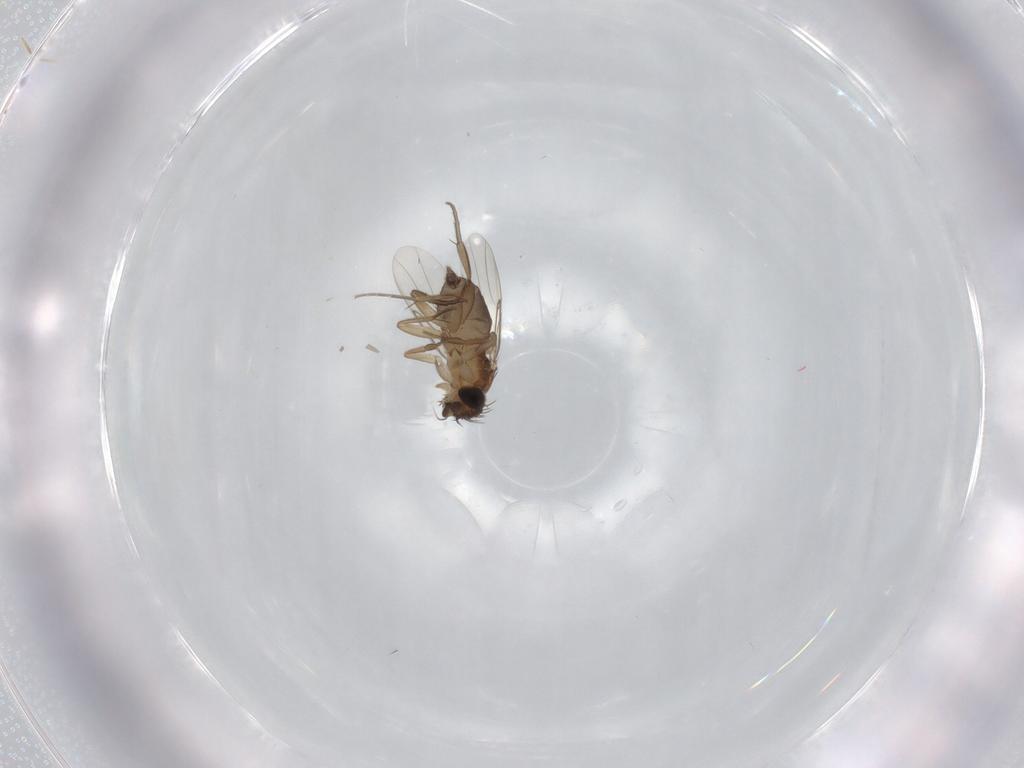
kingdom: Animalia
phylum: Arthropoda
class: Insecta
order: Diptera
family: Phoridae
